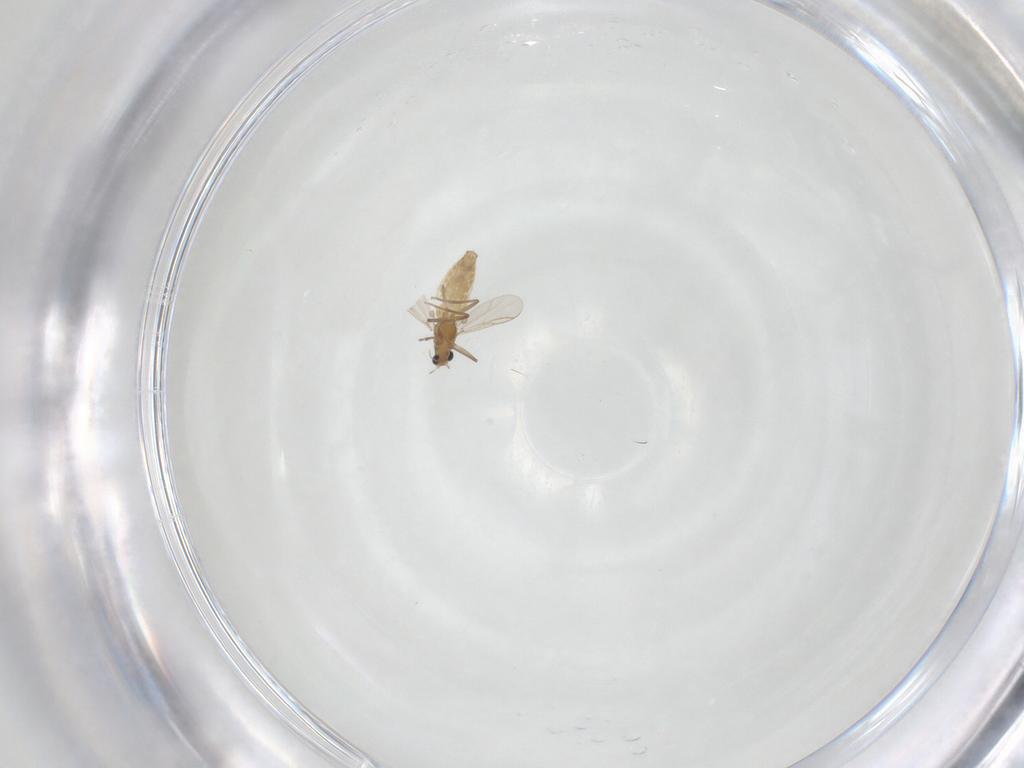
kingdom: Animalia
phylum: Arthropoda
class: Insecta
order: Diptera
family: Chironomidae
